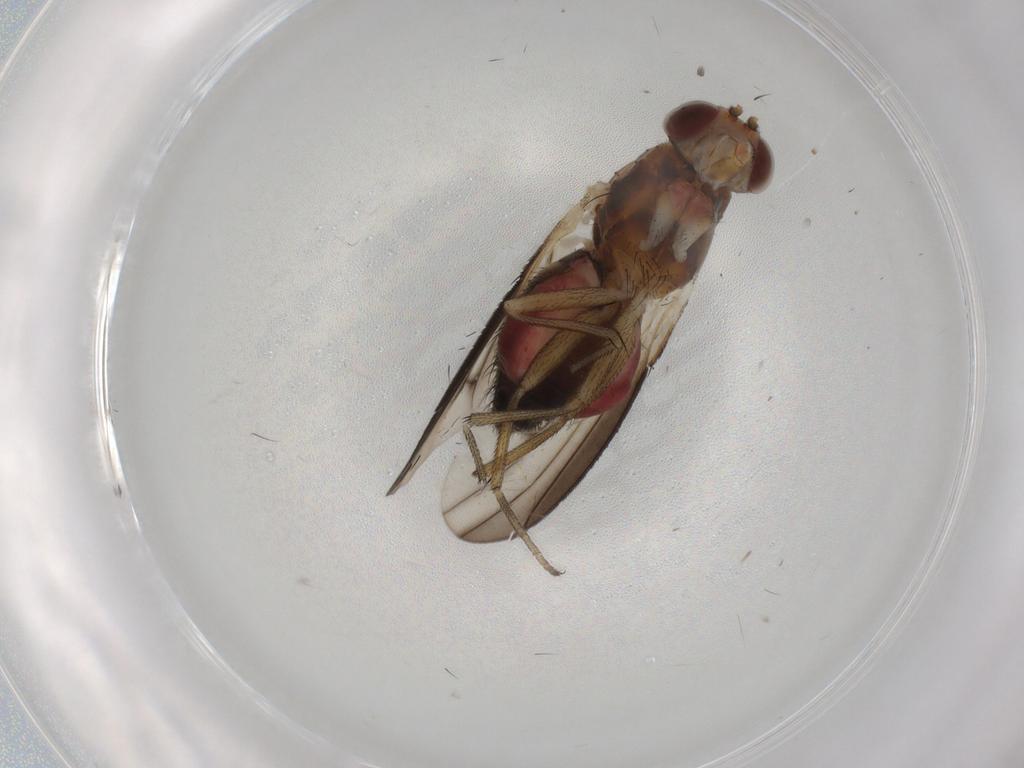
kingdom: Animalia
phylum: Arthropoda
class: Insecta
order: Diptera
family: Heleomyzidae
